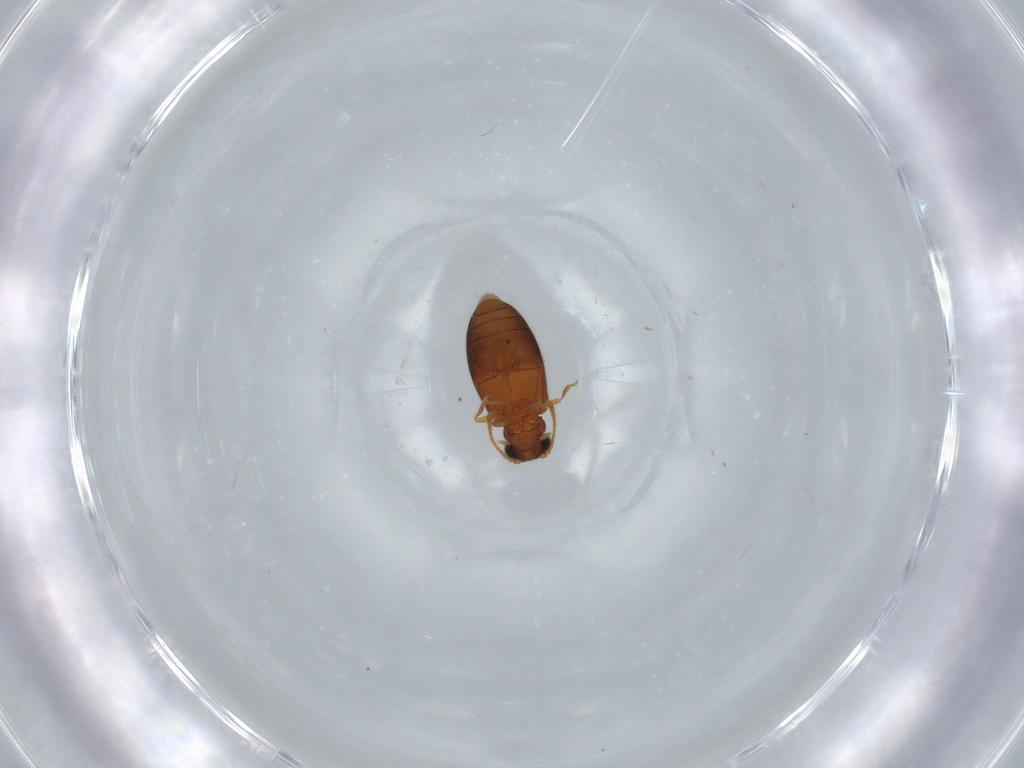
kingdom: Animalia
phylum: Arthropoda
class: Insecta
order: Coleoptera
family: Aderidae
